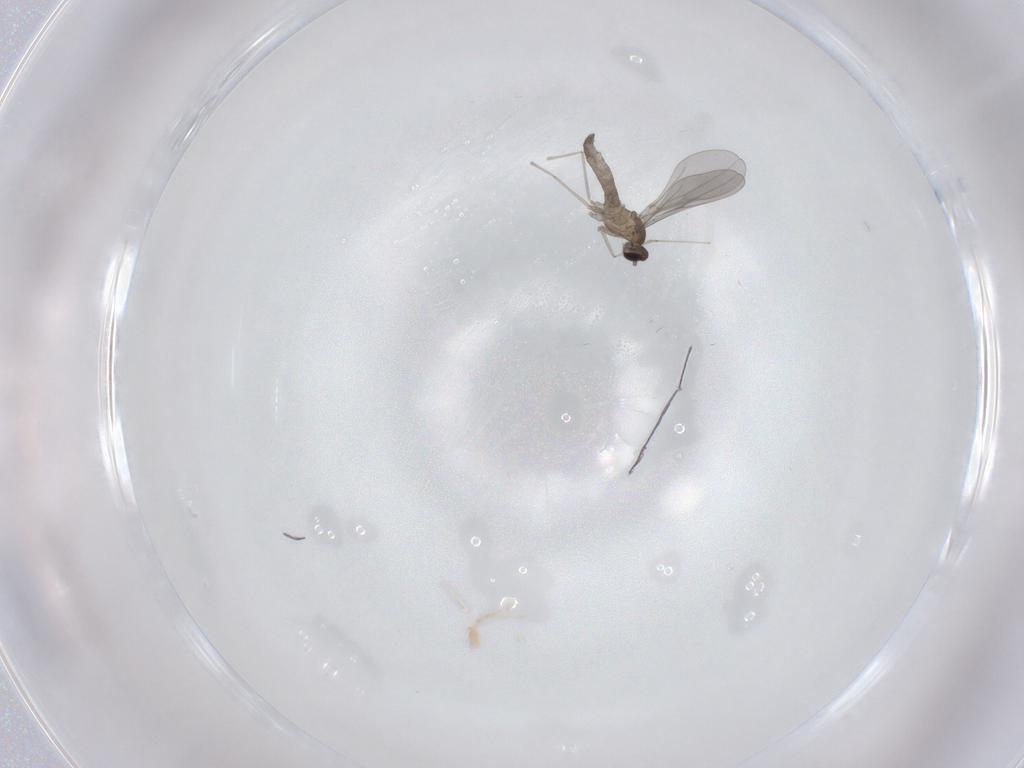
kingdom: Animalia
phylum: Arthropoda
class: Insecta
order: Diptera
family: Cecidomyiidae
